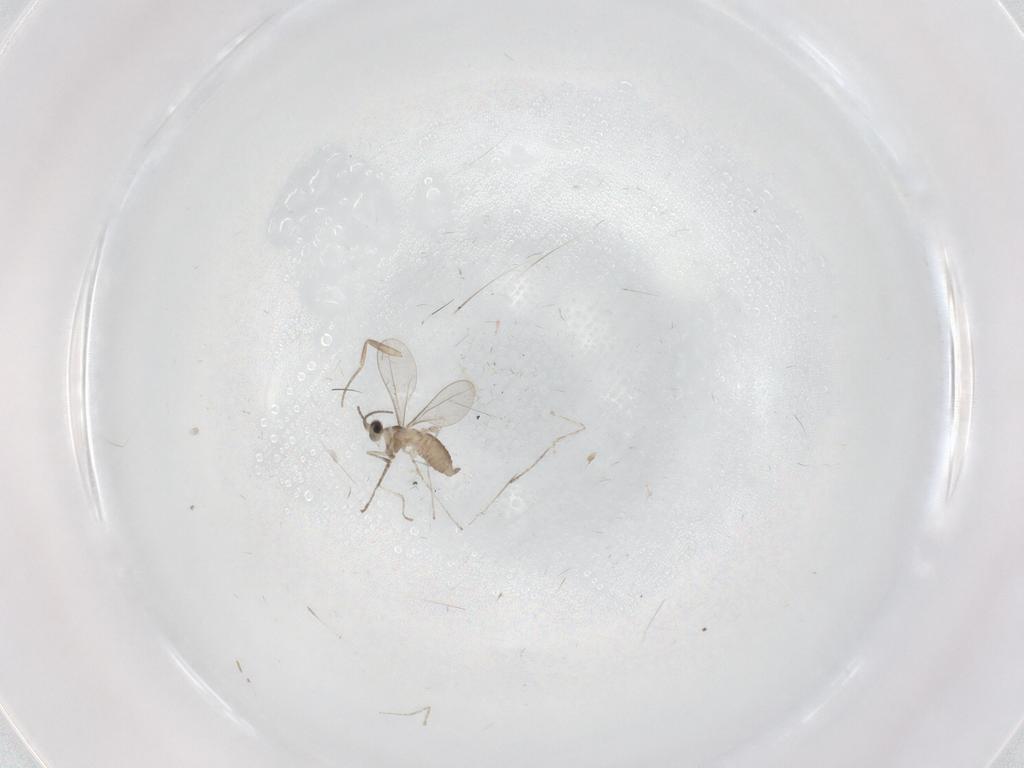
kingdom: Animalia
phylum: Arthropoda
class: Insecta
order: Diptera
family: Phoridae
